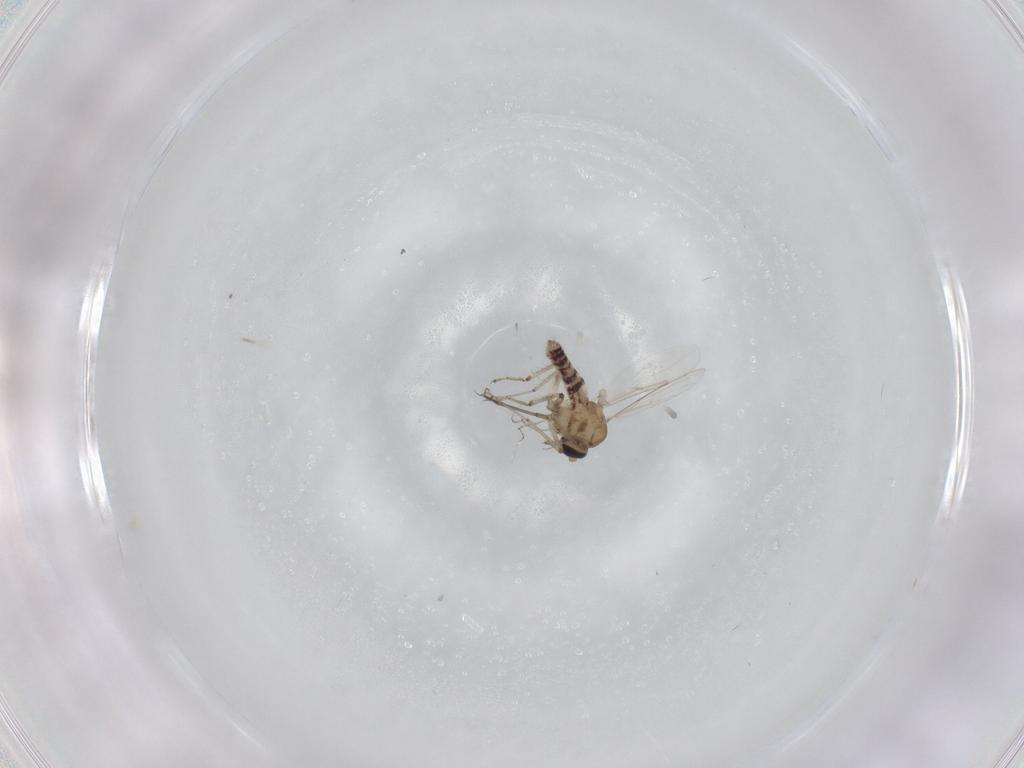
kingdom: Animalia
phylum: Arthropoda
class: Insecta
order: Diptera
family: Chironomidae
